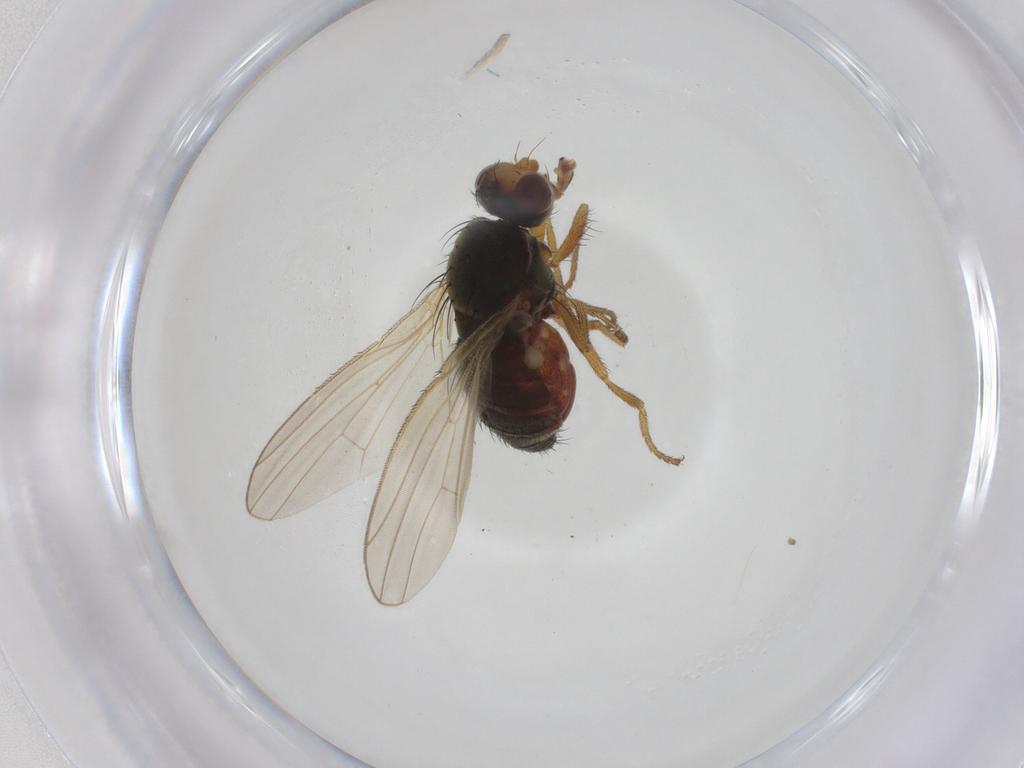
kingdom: Animalia
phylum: Arthropoda
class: Insecta
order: Diptera
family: Heleomyzidae
